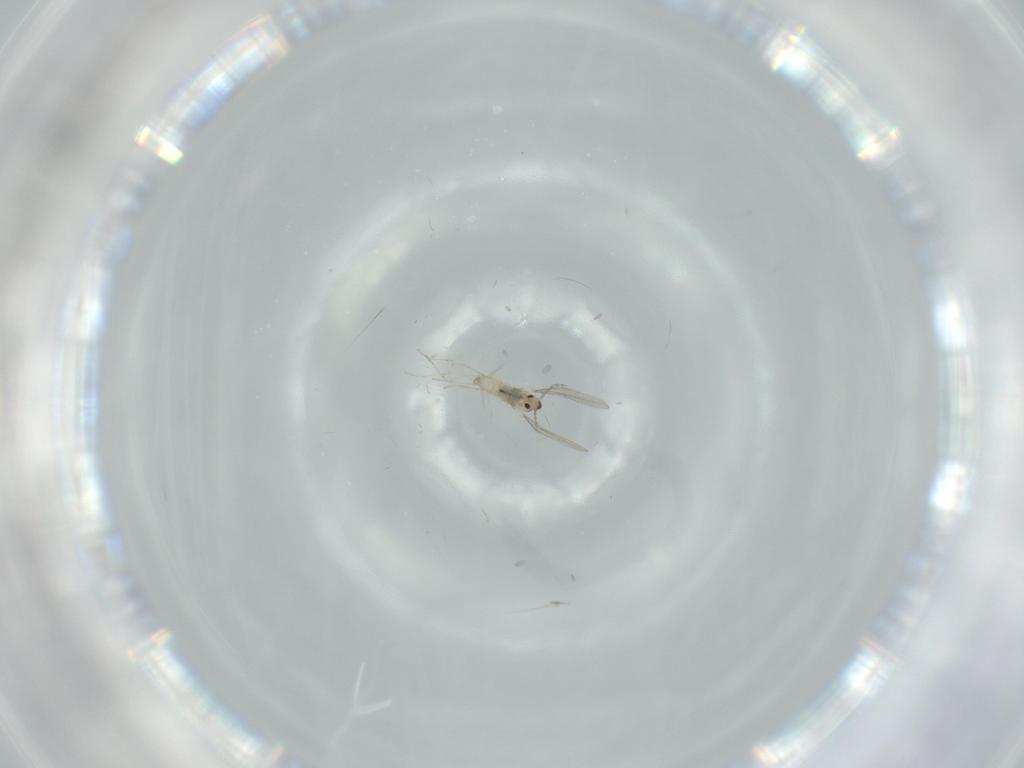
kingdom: Animalia
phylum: Arthropoda
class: Insecta
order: Diptera
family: Cecidomyiidae
